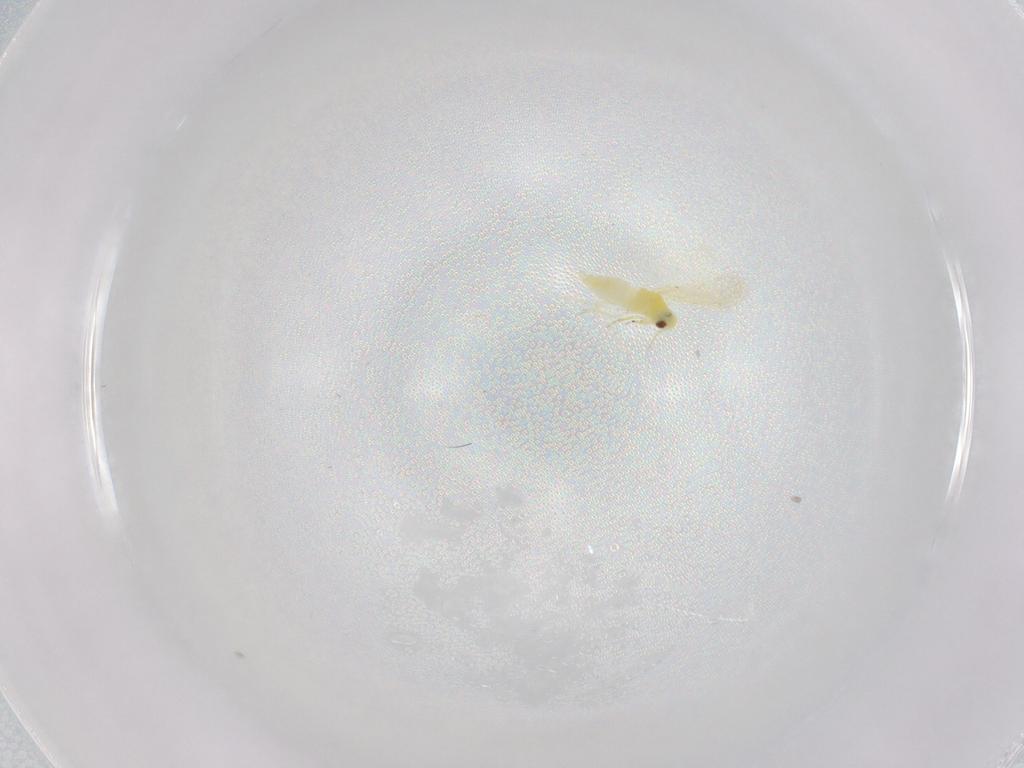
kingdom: Animalia
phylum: Arthropoda
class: Insecta
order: Hemiptera
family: Aleyrodidae
